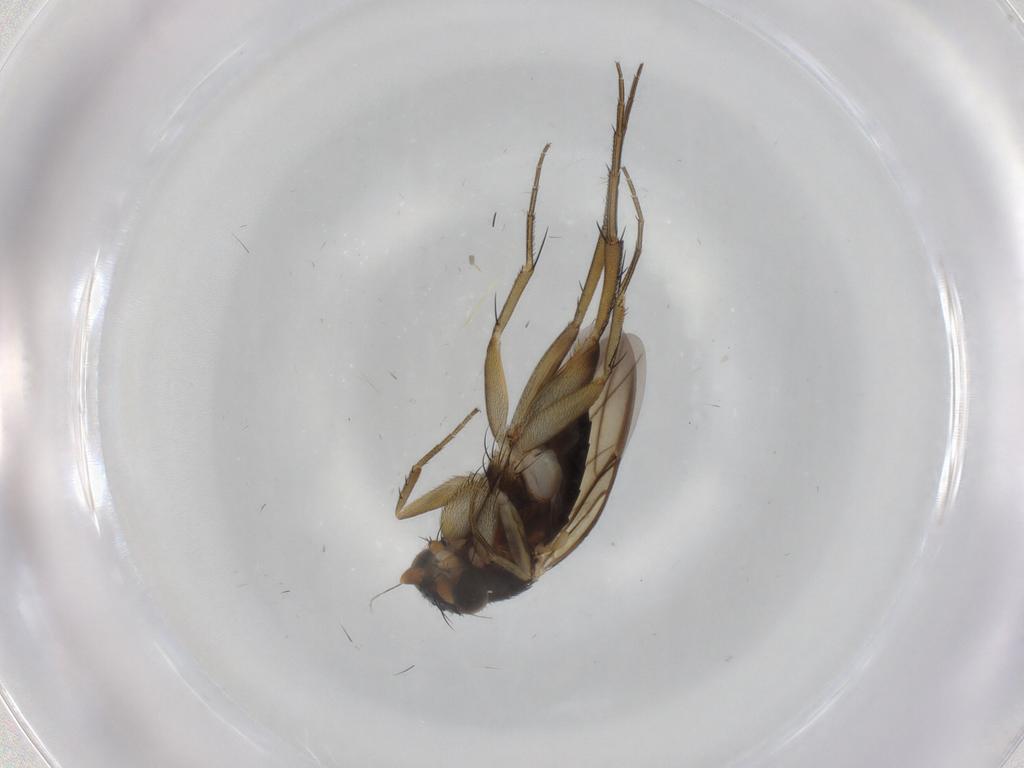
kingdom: Animalia
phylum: Arthropoda
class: Insecta
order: Diptera
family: Phoridae
